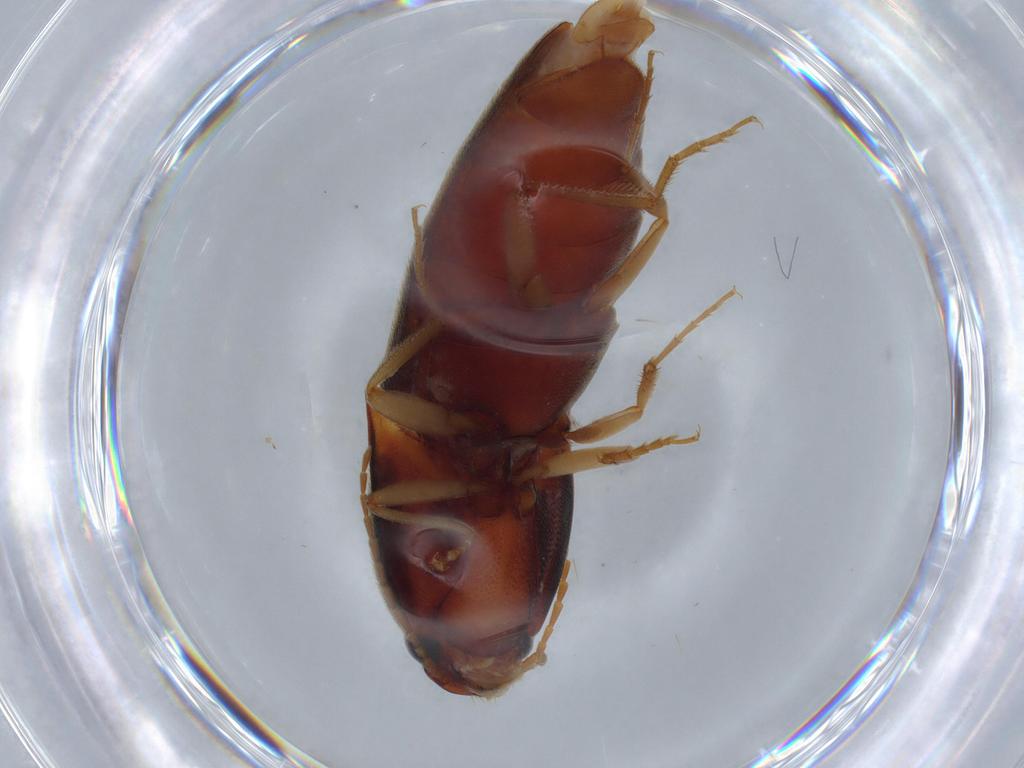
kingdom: Animalia
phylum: Arthropoda
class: Insecta
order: Coleoptera
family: Elateridae
